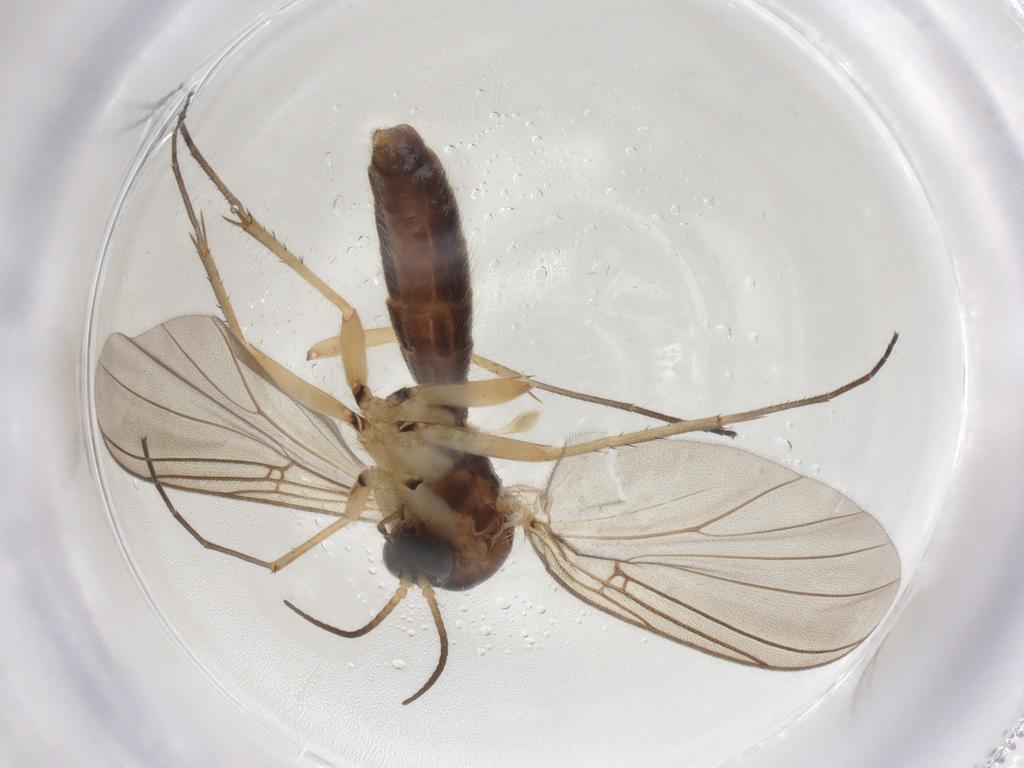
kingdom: Animalia
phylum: Arthropoda
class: Insecta
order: Diptera
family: Mycetophilidae
